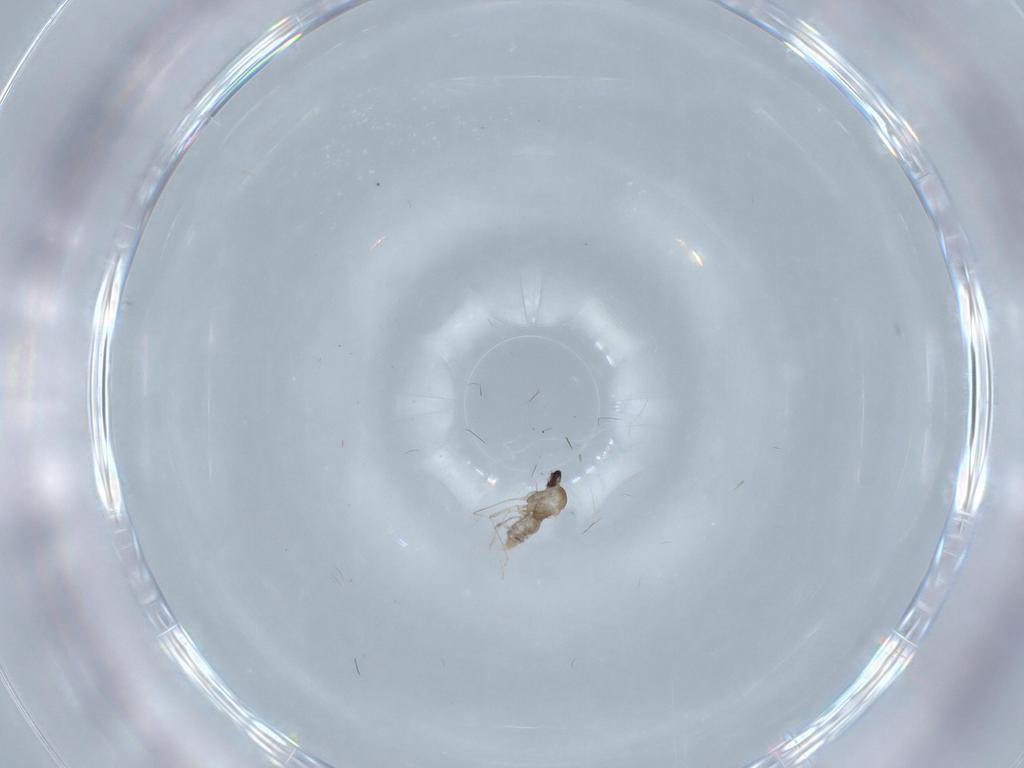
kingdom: Animalia
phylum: Arthropoda
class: Insecta
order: Diptera
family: Cecidomyiidae
